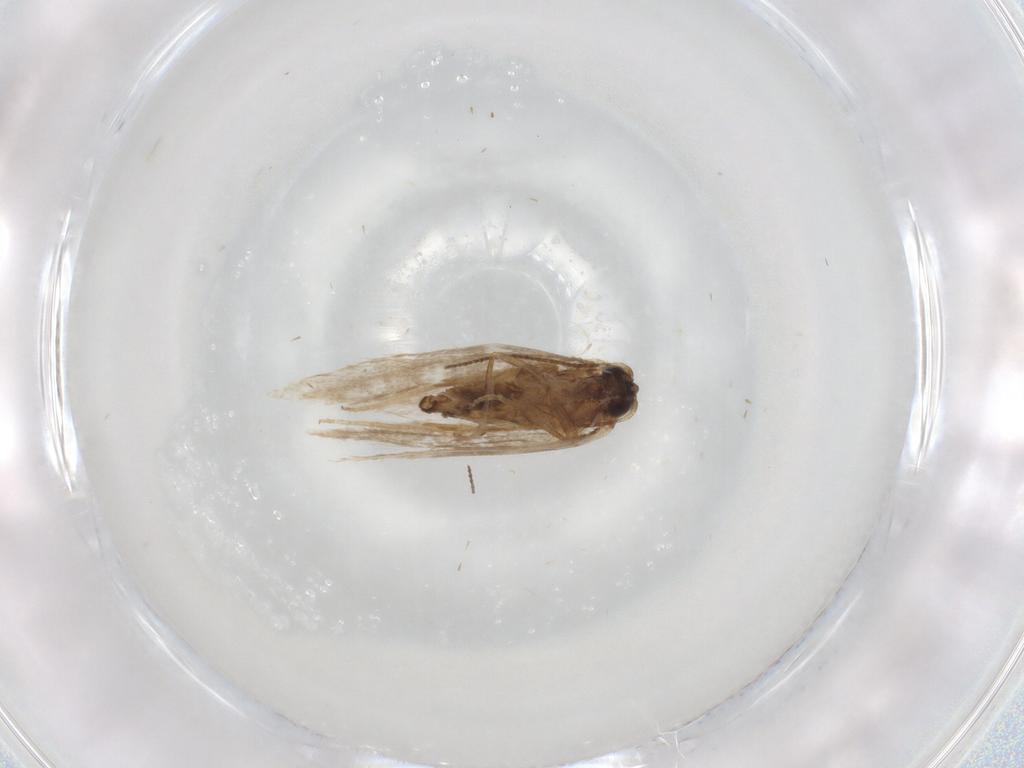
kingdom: Animalia
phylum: Arthropoda
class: Insecta
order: Lepidoptera
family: Nepticulidae
